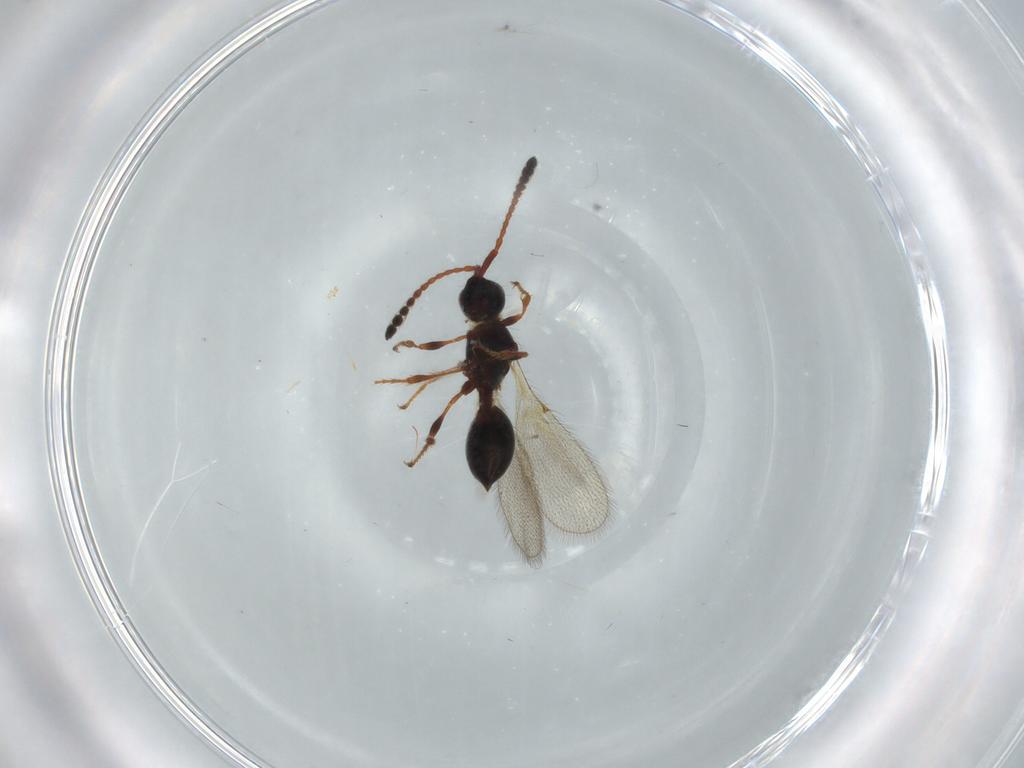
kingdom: Animalia
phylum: Arthropoda
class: Insecta
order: Hymenoptera
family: Diapriidae
